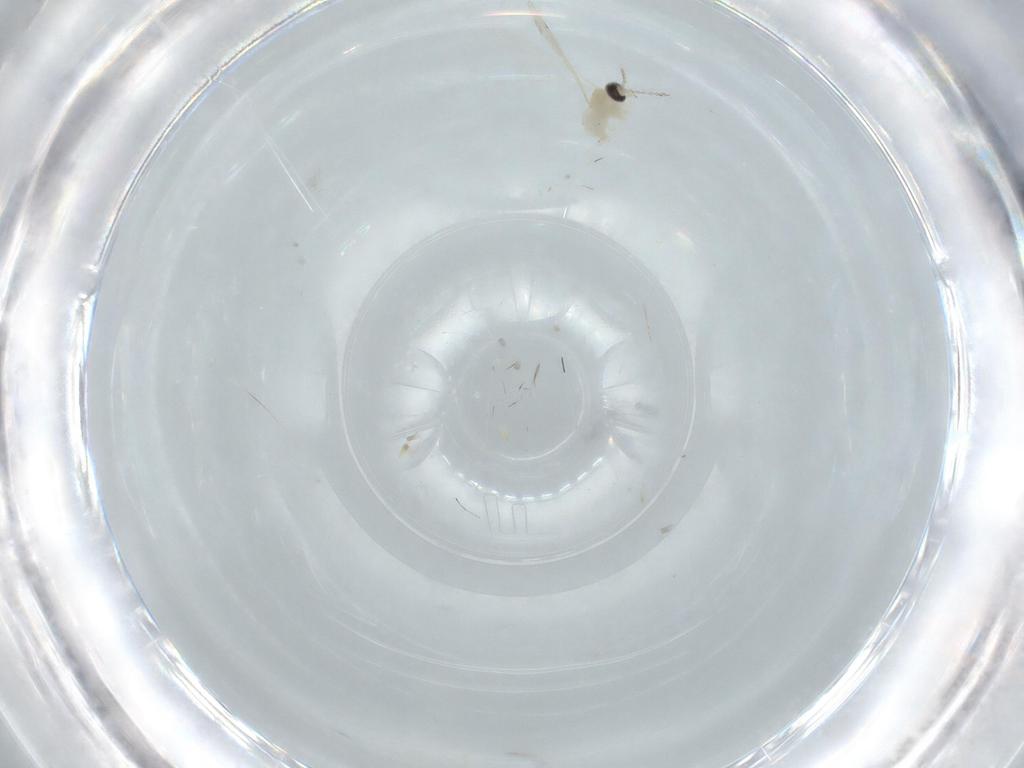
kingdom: Animalia
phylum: Arthropoda
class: Insecta
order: Diptera
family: Cecidomyiidae
